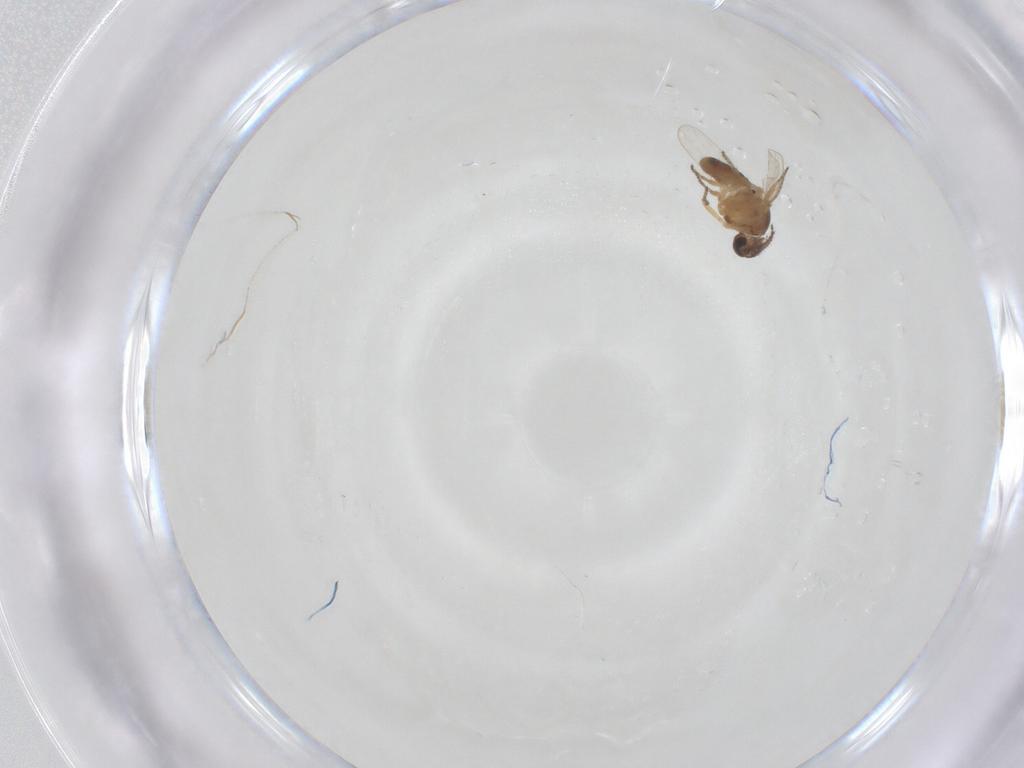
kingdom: Animalia
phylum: Arthropoda
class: Insecta
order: Diptera
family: Ceratopogonidae
